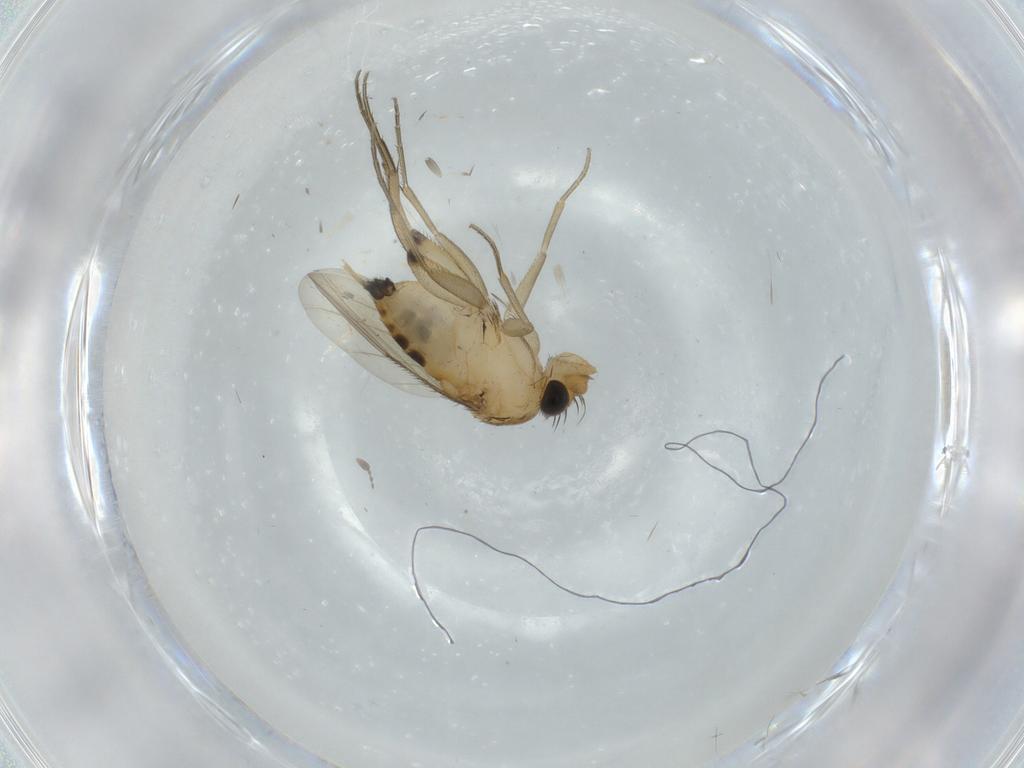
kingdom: Animalia
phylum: Arthropoda
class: Insecta
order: Diptera
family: Phoridae
